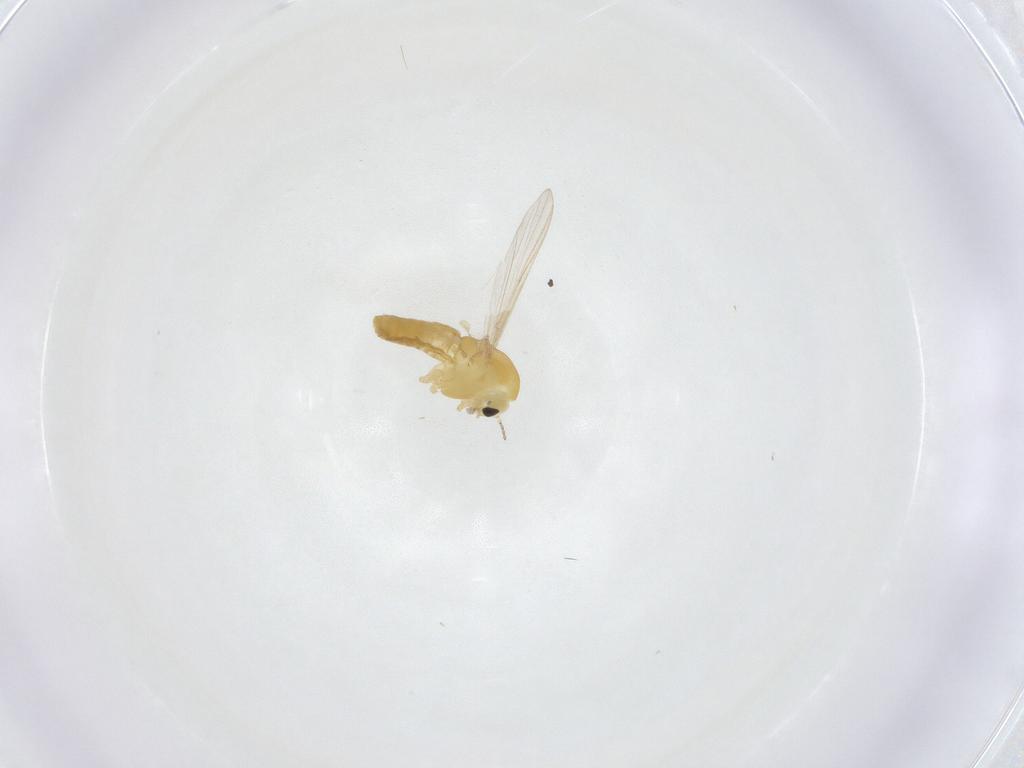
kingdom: Animalia
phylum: Arthropoda
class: Insecta
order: Diptera
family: Chironomidae
